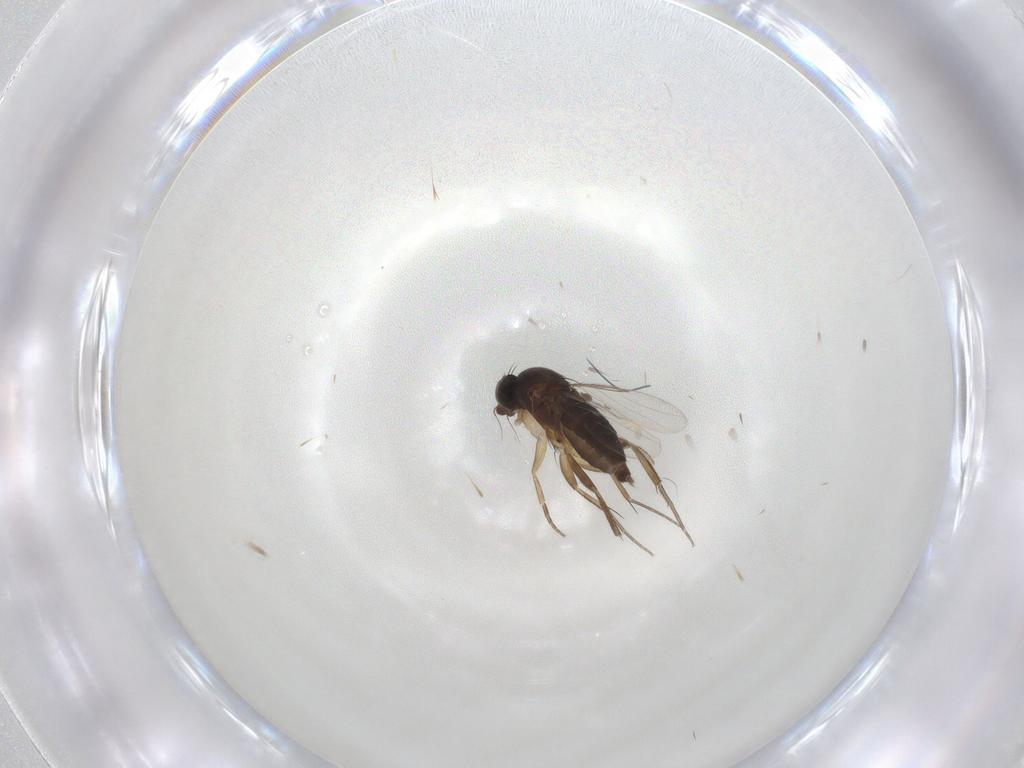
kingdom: Animalia
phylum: Arthropoda
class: Insecta
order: Diptera
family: Phoridae
